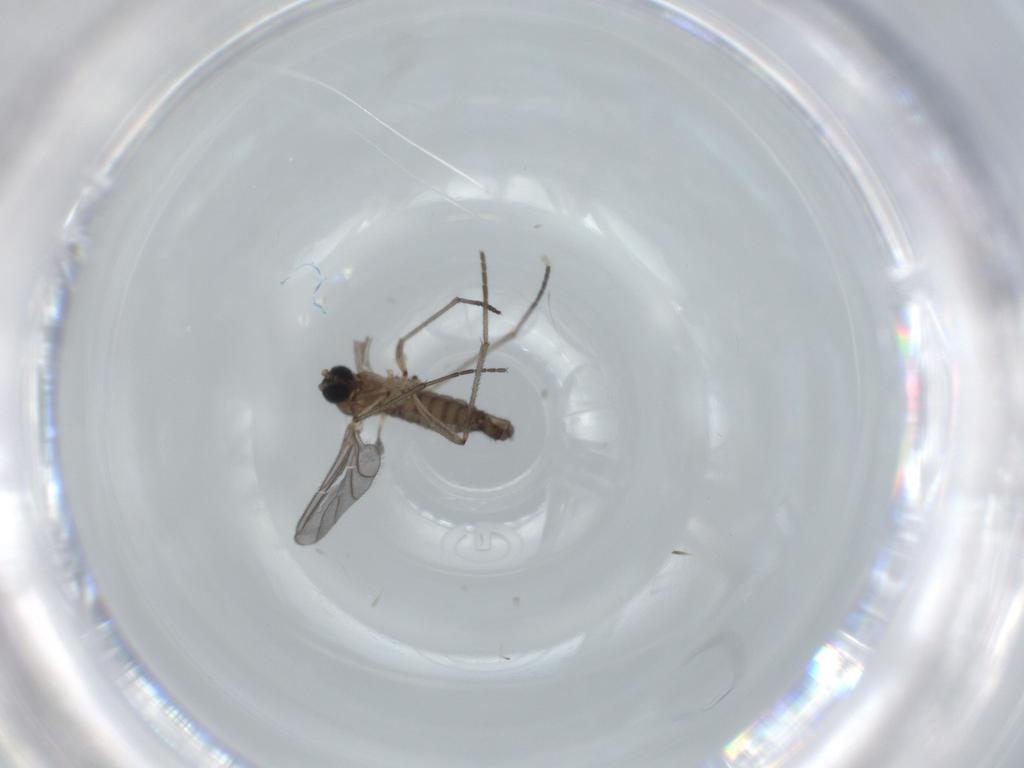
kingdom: Animalia
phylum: Arthropoda
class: Insecta
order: Diptera
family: Sciaridae
